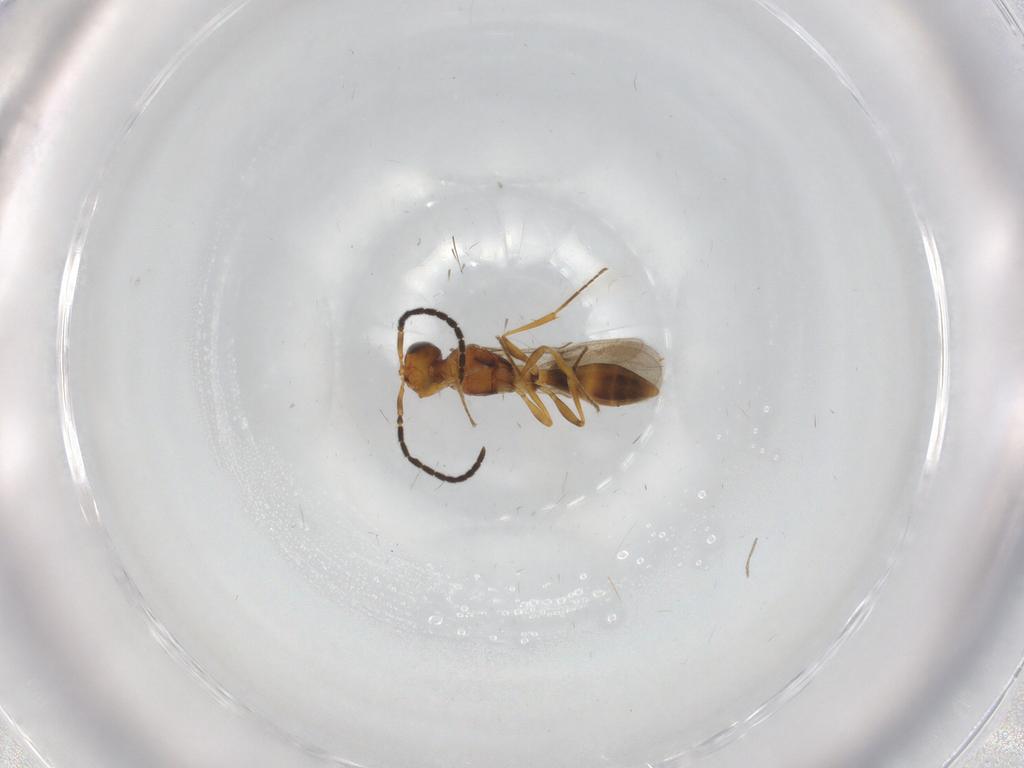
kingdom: Animalia
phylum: Arthropoda
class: Insecta
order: Hymenoptera
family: Scelionidae
